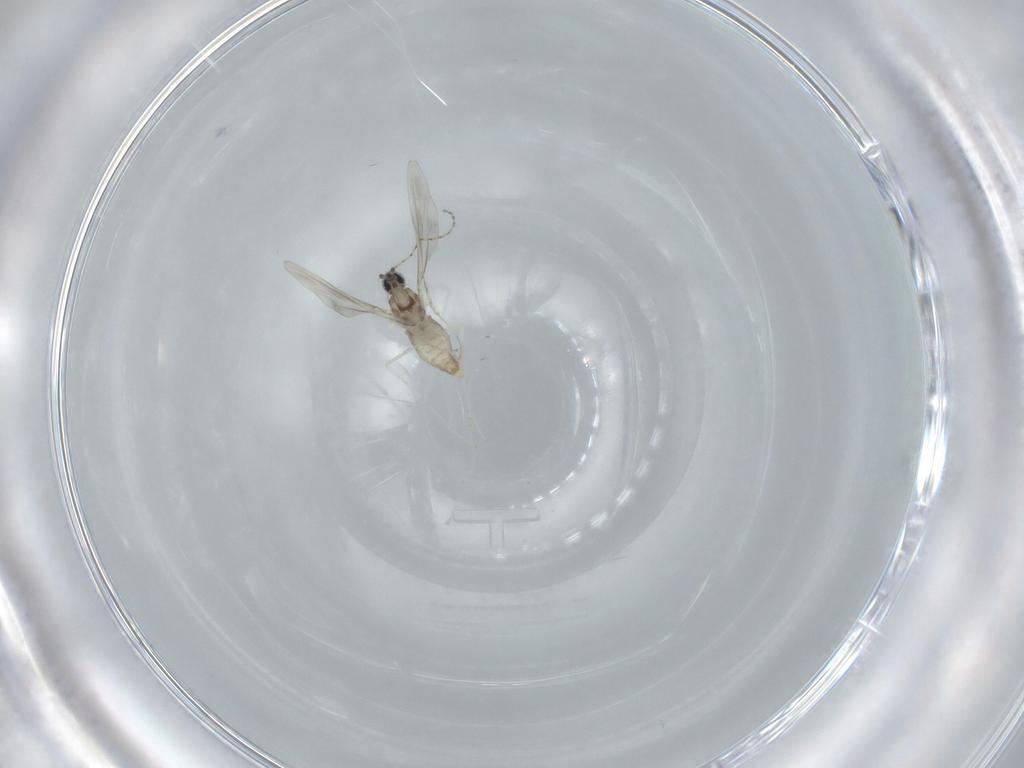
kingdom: Animalia
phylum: Arthropoda
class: Insecta
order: Diptera
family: Cecidomyiidae
